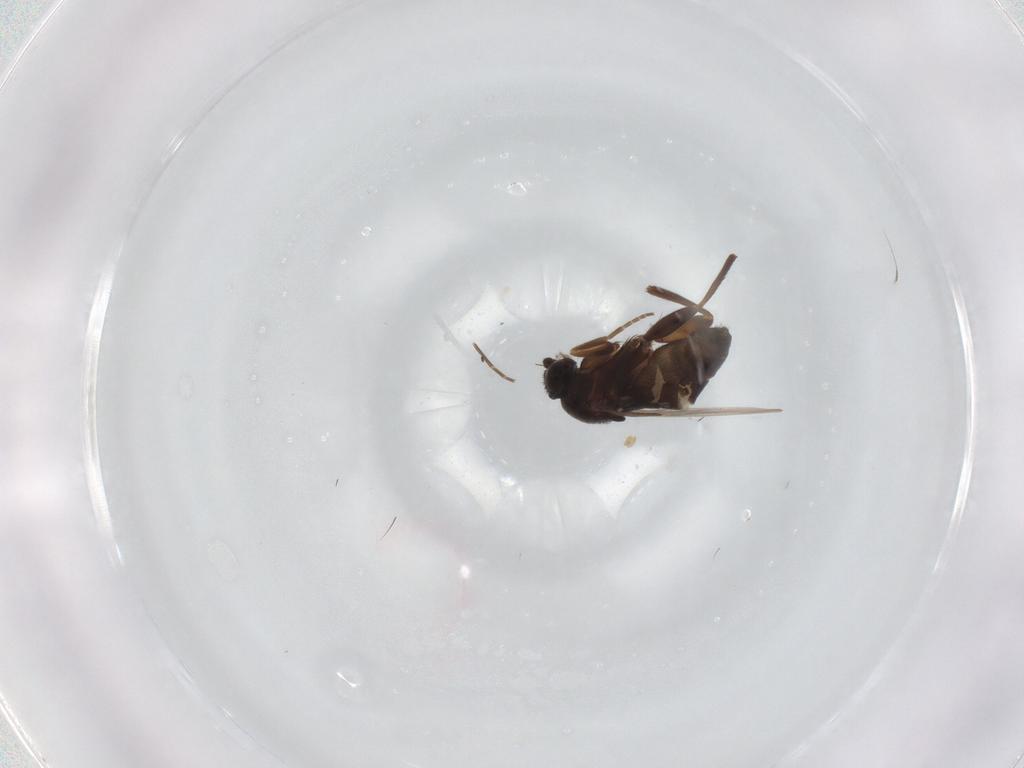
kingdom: Animalia
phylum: Arthropoda
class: Insecta
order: Diptera
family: Phoridae
